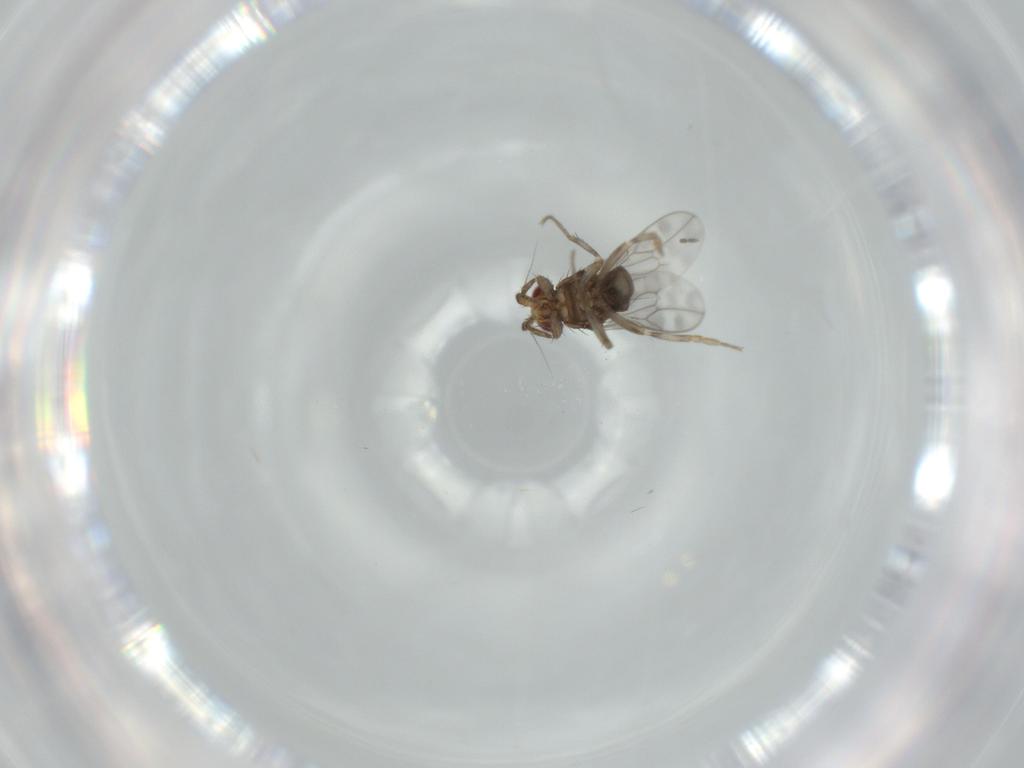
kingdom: Animalia
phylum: Arthropoda
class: Insecta
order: Diptera
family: Sphaeroceridae
